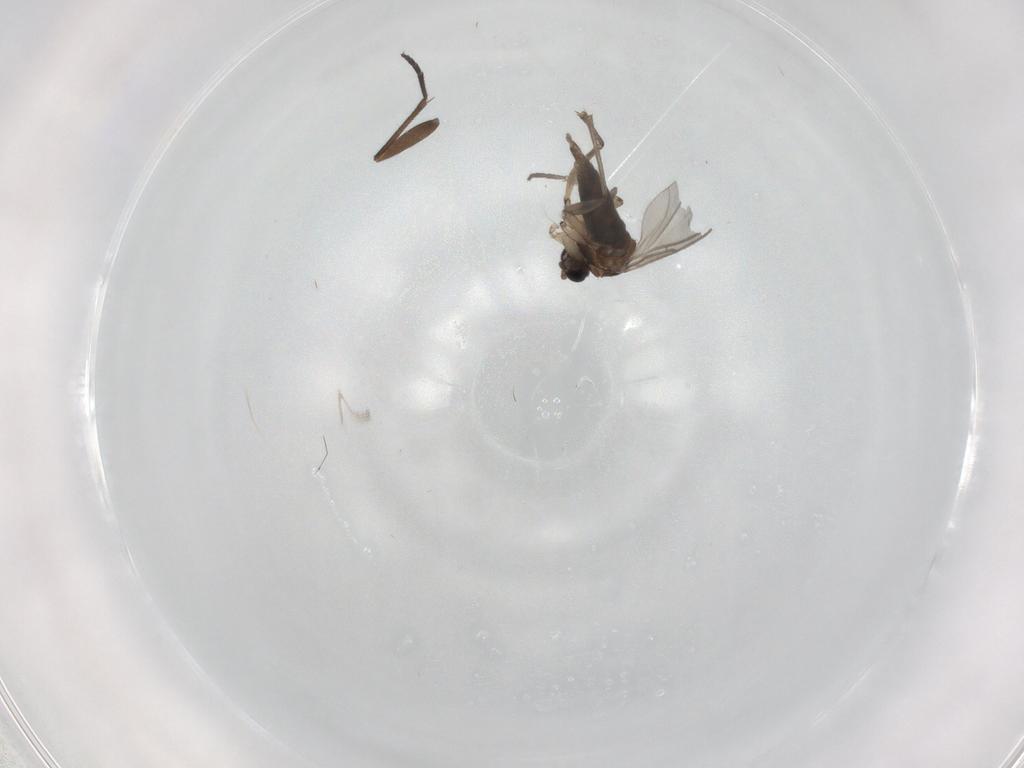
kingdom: Animalia
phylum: Arthropoda
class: Insecta
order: Diptera
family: Sciaridae
